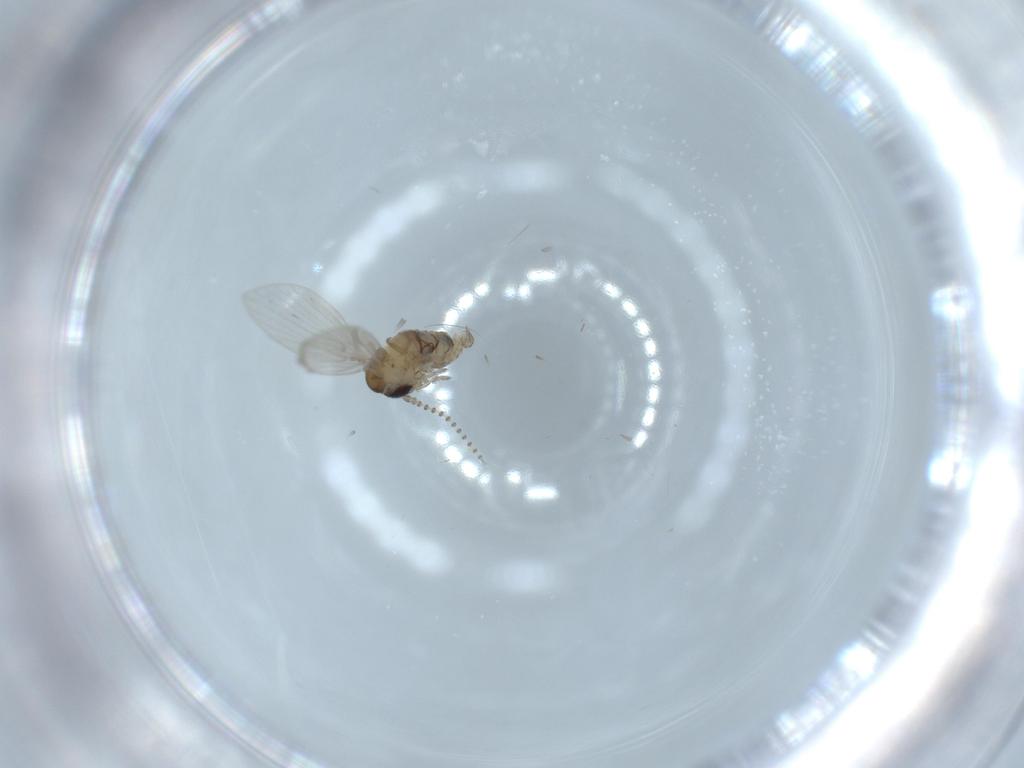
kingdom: Animalia
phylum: Arthropoda
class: Insecta
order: Diptera
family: Psychodidae
